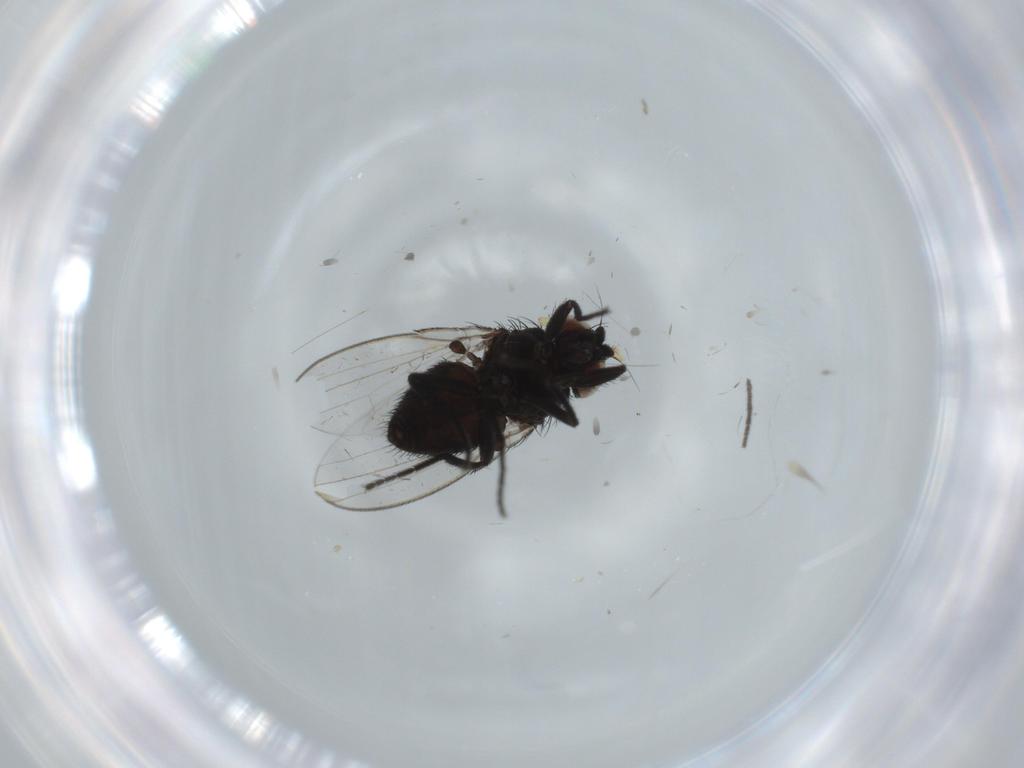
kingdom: Animalia
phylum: Arthropoda
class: Insecta
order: Diptera
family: Sciaridae
